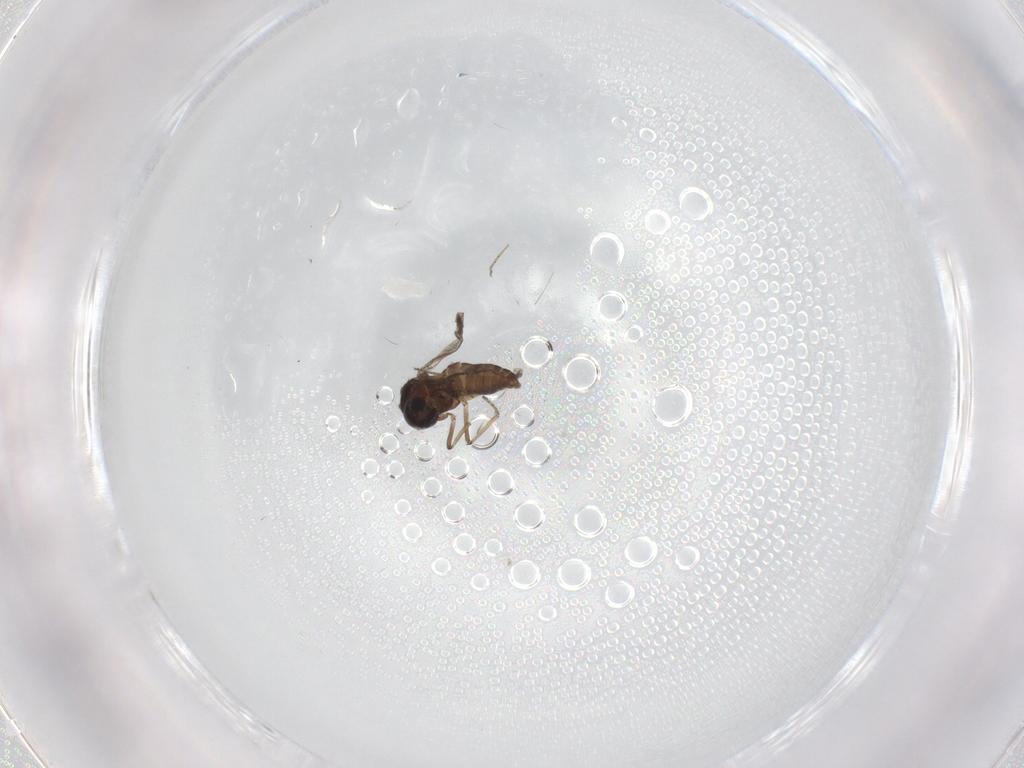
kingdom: Animalia
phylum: Arthropoda
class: Insecta
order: Diptera
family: Ceratopogonidae
